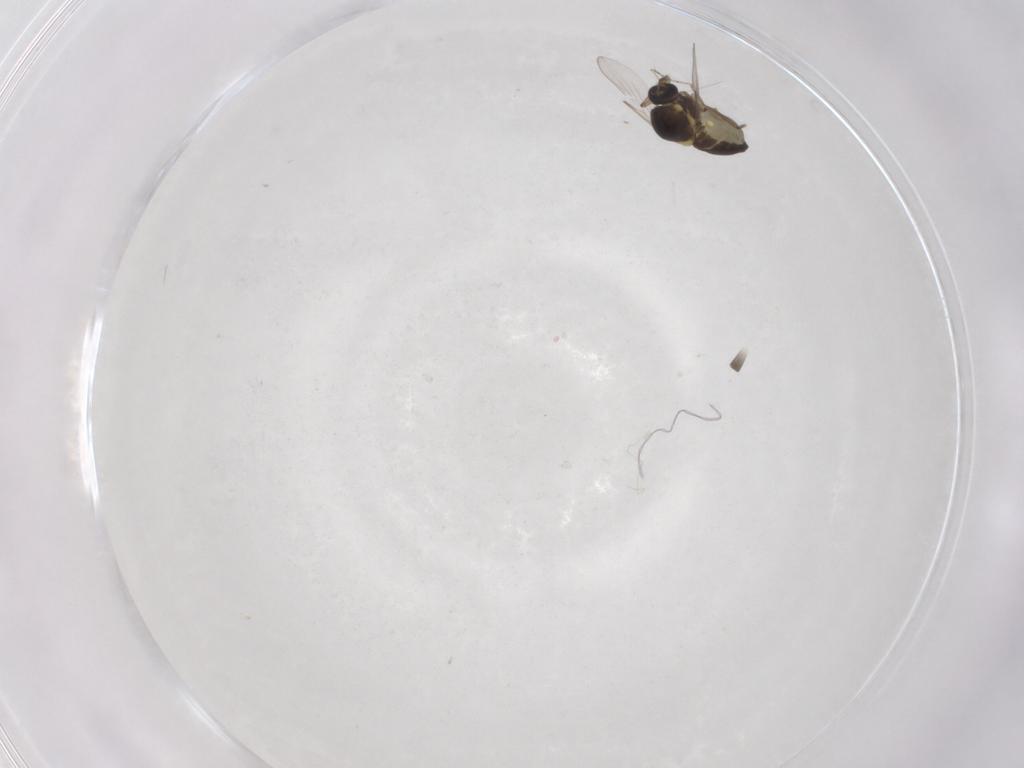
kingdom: Animalia
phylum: Arthropoda
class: Insecta
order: Diptera
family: Ceratopogonidae
